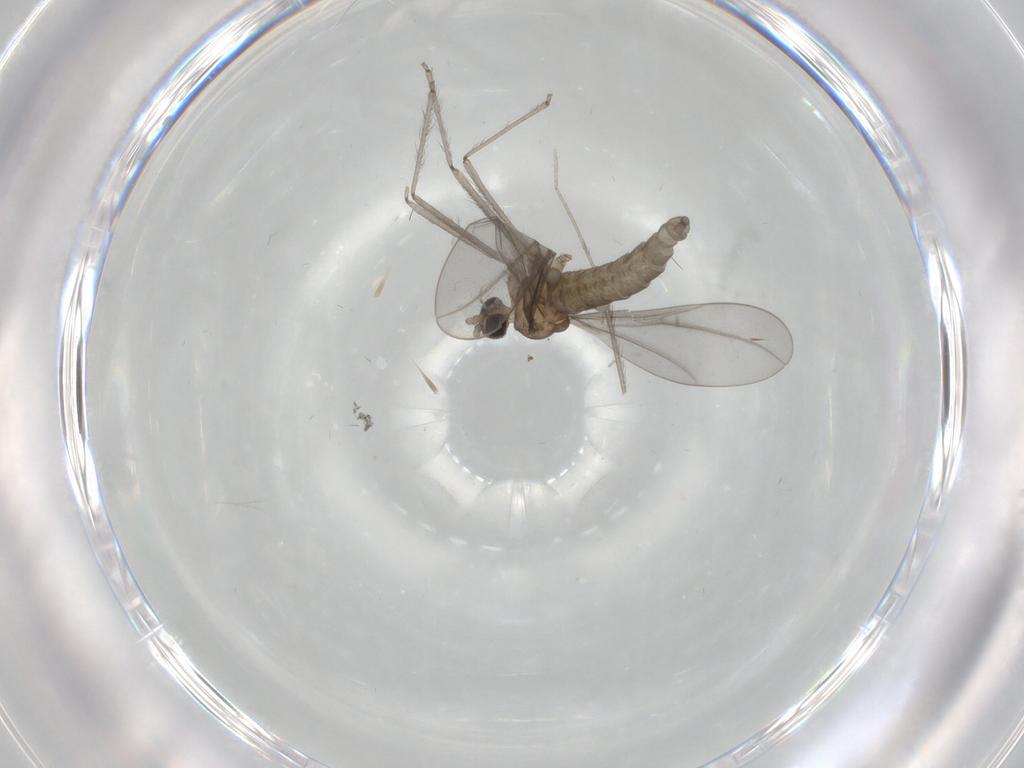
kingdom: Animalia
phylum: Arthropoda
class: Insecta
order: Diptera
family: Cecidomyiidae
